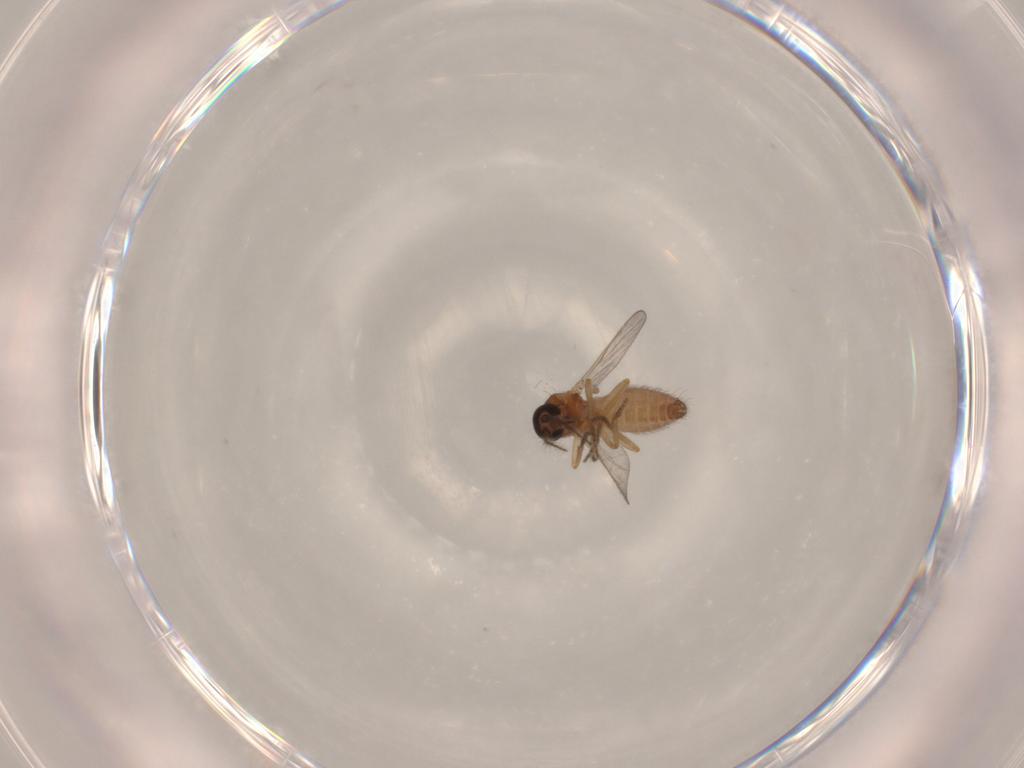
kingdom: Animalia
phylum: Arthropoda
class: Insecta
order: Diptera
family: Ceratopogonidae
